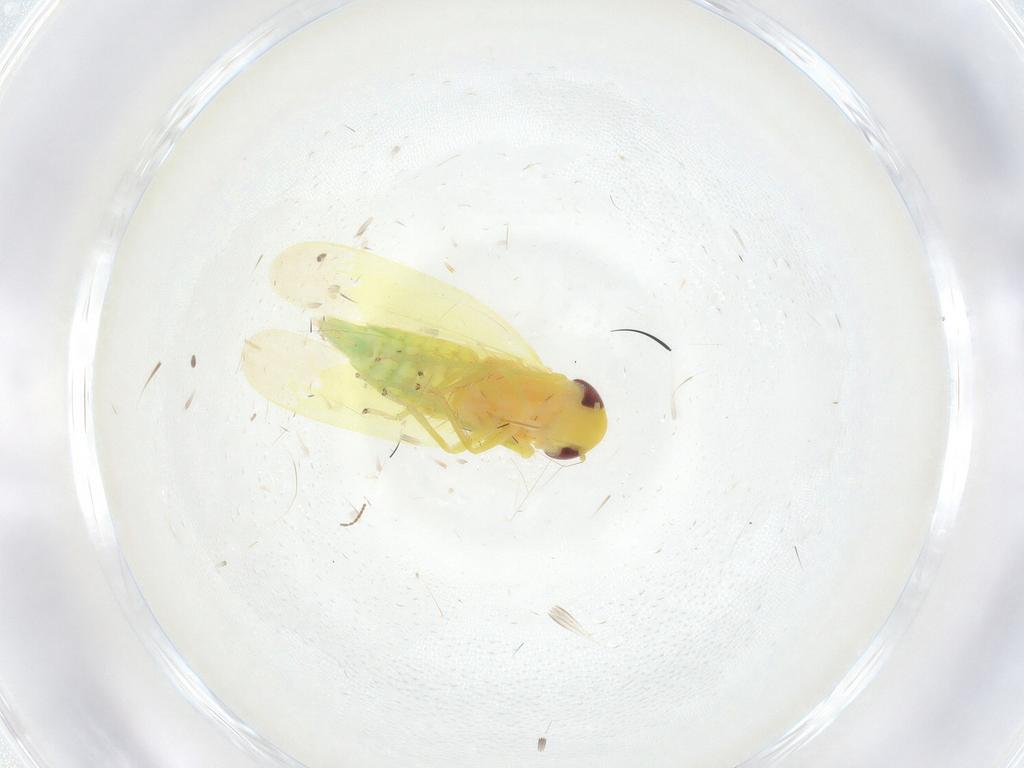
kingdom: Animalia
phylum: Arthropoda
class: Insecta
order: Hemiptera
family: Cicadellidae
